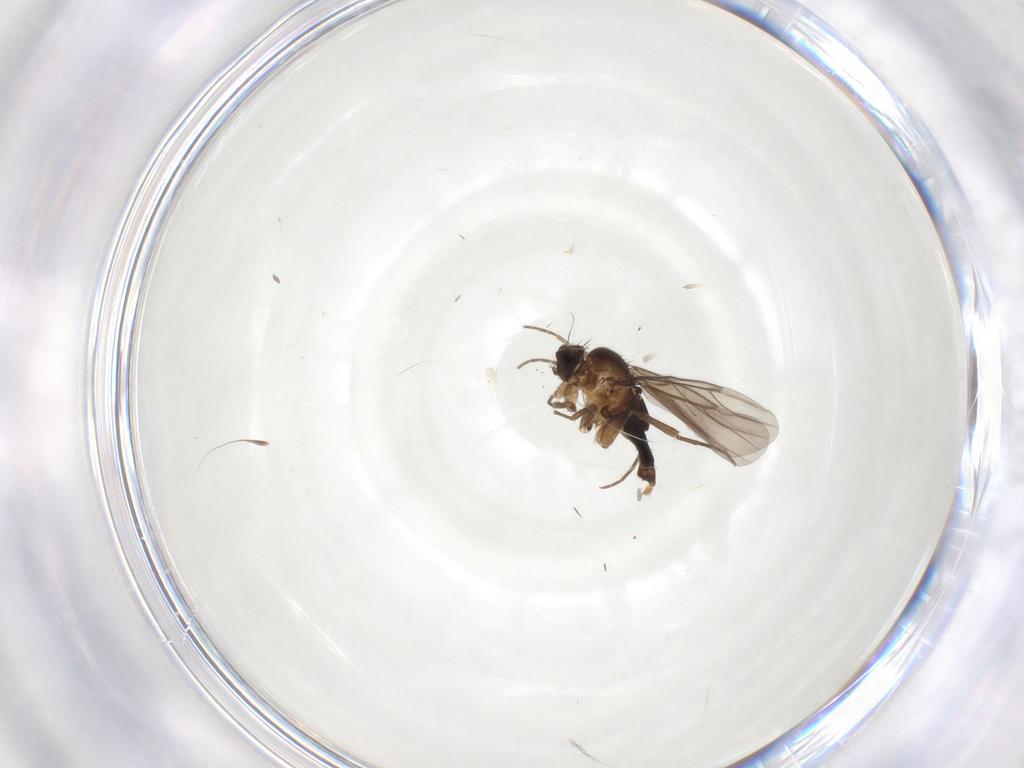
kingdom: Animalia
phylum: Arthropoda
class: Insecta
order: Diptera
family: Phoridae
